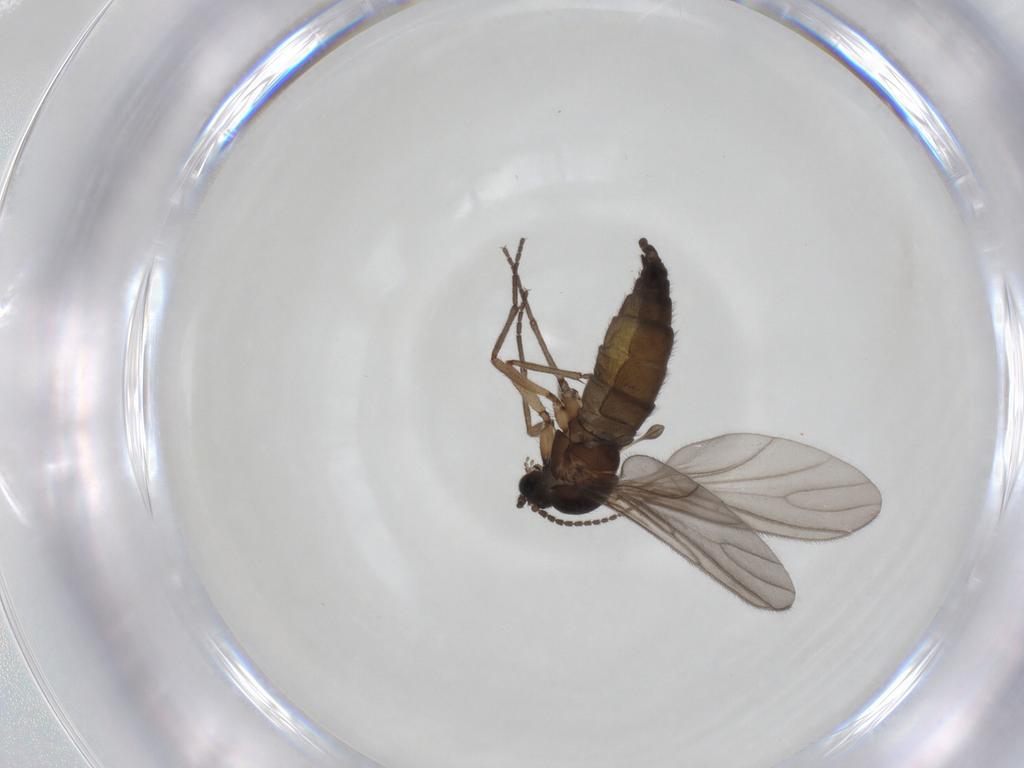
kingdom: Animalia
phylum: Arthropoda
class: Insecta
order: Diptera
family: Sciaridae
